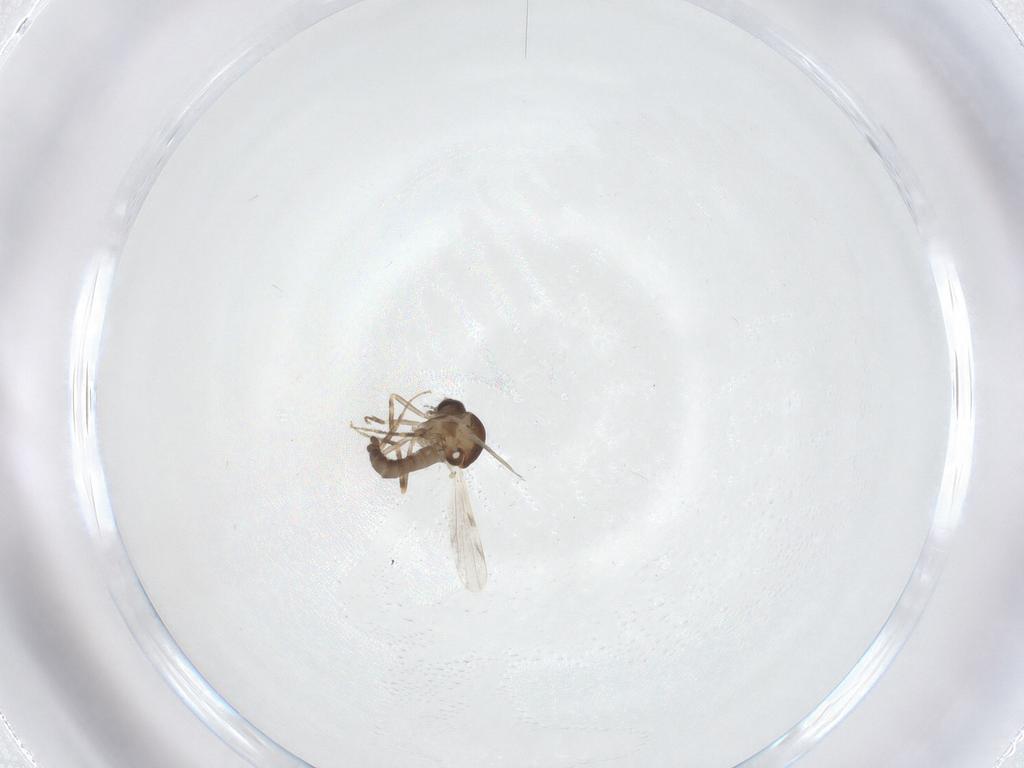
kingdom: Animalia
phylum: Arthropoda
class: Insecta
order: Diptera
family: Ceratopogonidae
